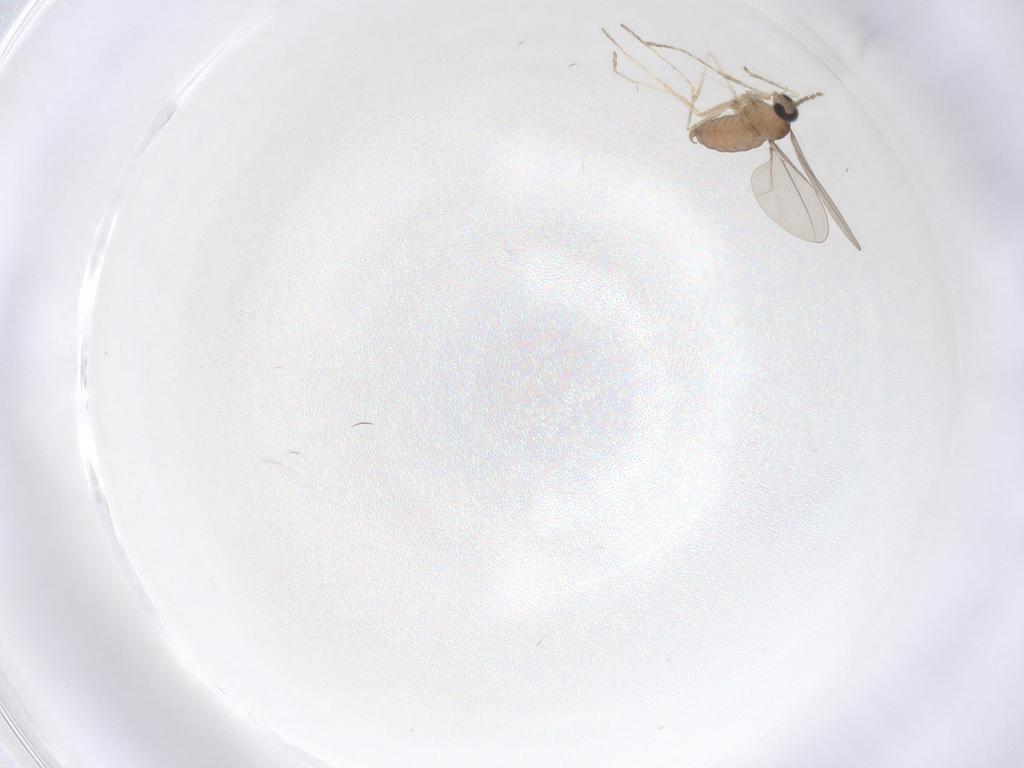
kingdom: Animalia
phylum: Arthropoda
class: Insecta
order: Diptera
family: Cecidomyiidae
